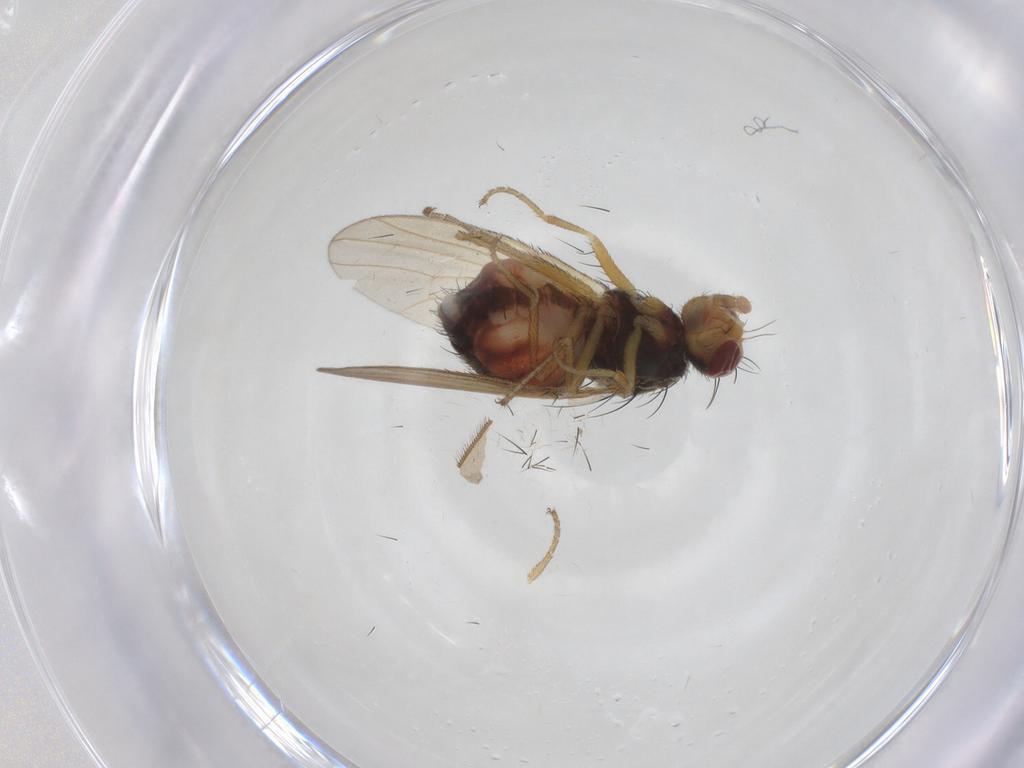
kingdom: Animalia
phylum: Arthropoda
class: Insecta
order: Diptera
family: Heleomyzidae
